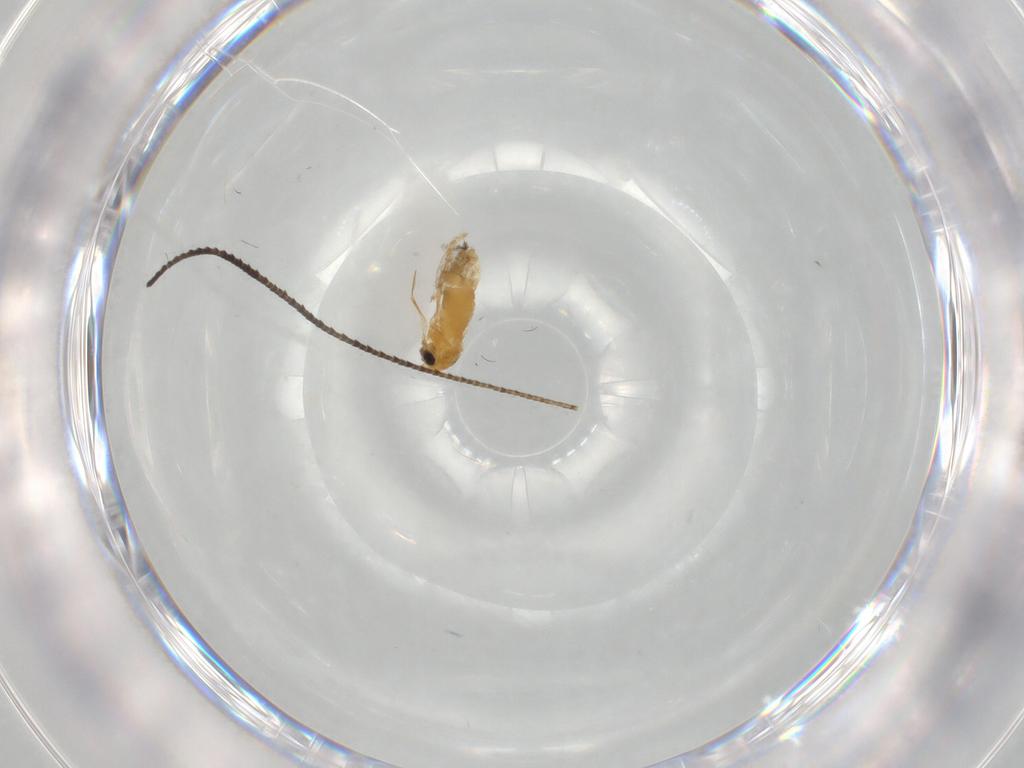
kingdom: Animalia
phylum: Arthropoda
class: Insecta
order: Diptera
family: Chironomidae
